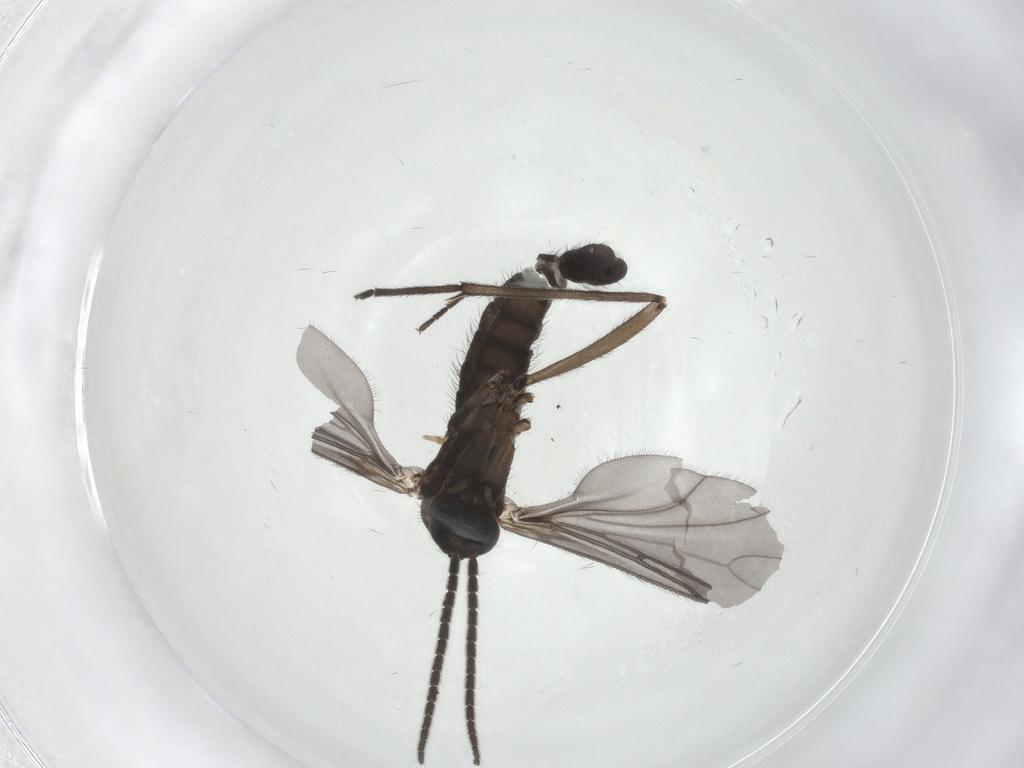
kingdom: Animalia
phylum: Arthropoda
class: Insecta
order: Diptera
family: Sciaridae
